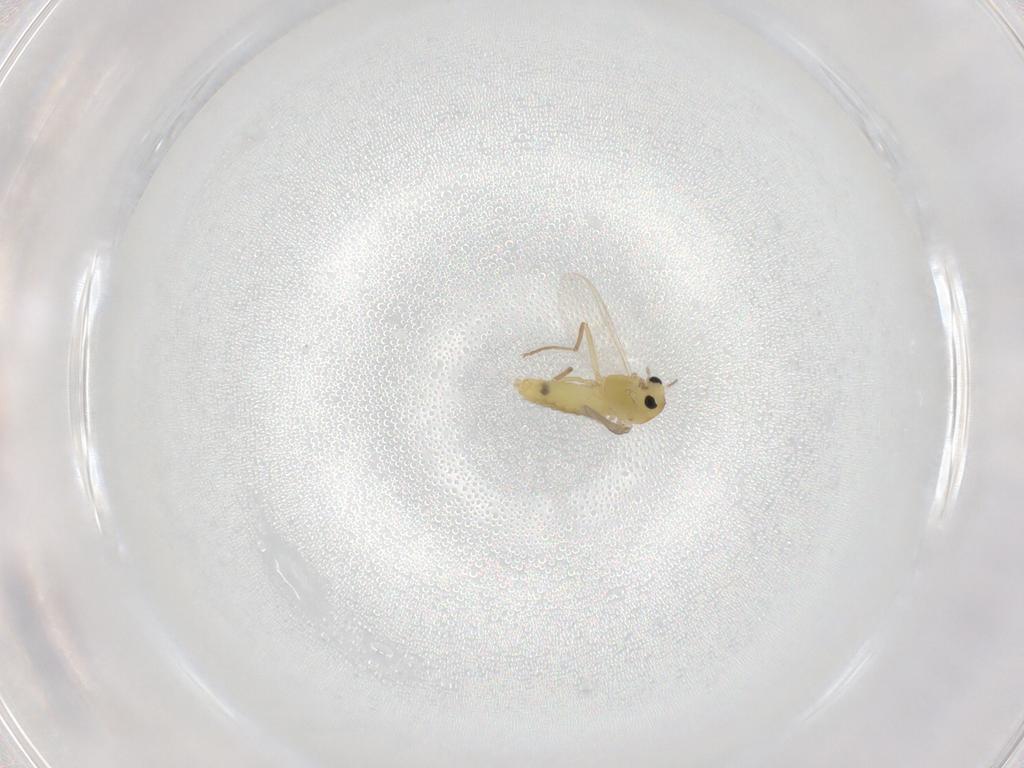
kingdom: Animalia
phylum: Arthropoda
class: Insecta
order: Diptera
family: Chironomidae
